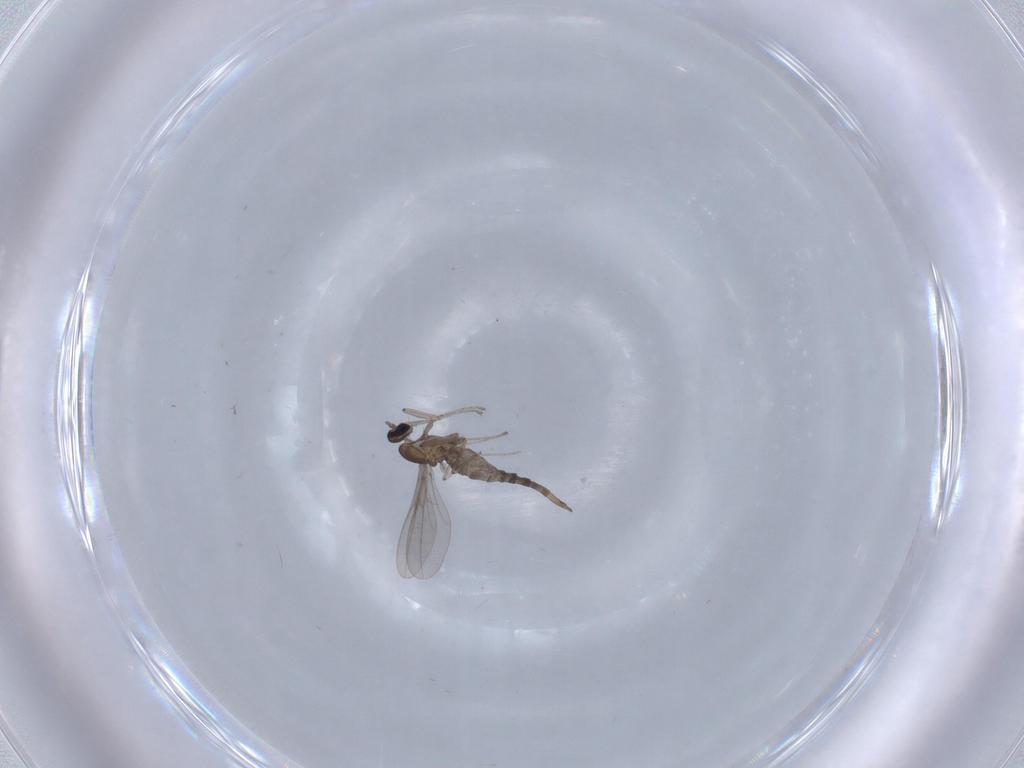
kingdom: Animalia
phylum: Arthropoda
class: Insecta
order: Diptera
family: Cecidomyiidae
